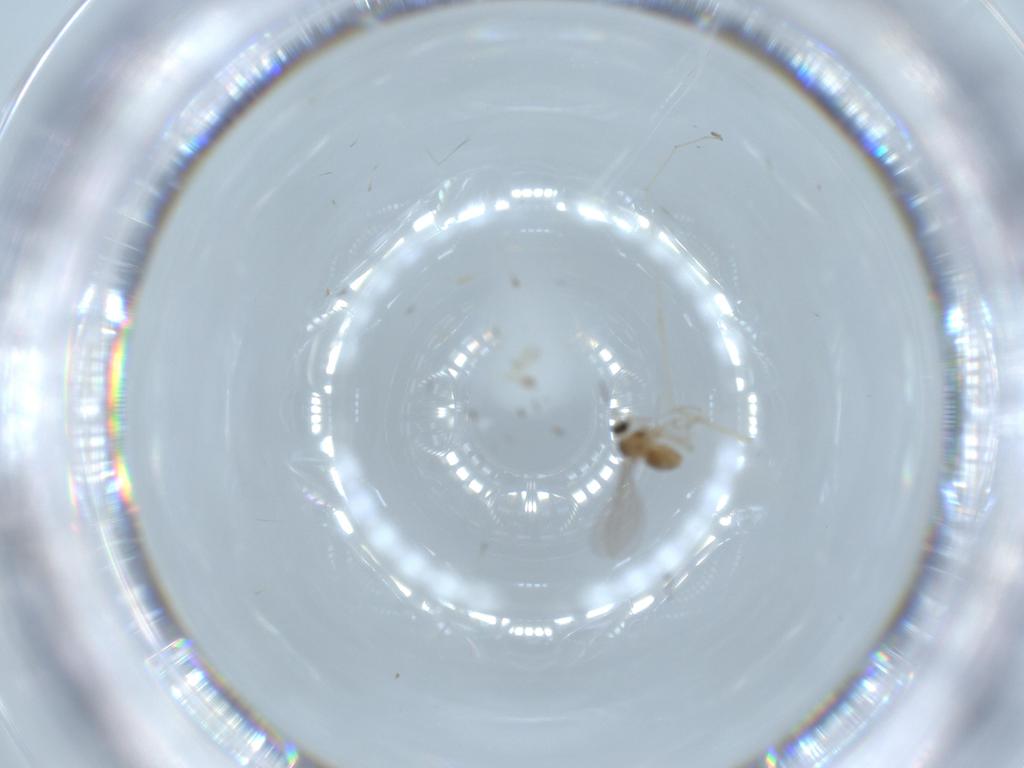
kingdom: Animalia
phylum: Arthropoda
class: Insecta
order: Diptera
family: Cecidomyiidae
